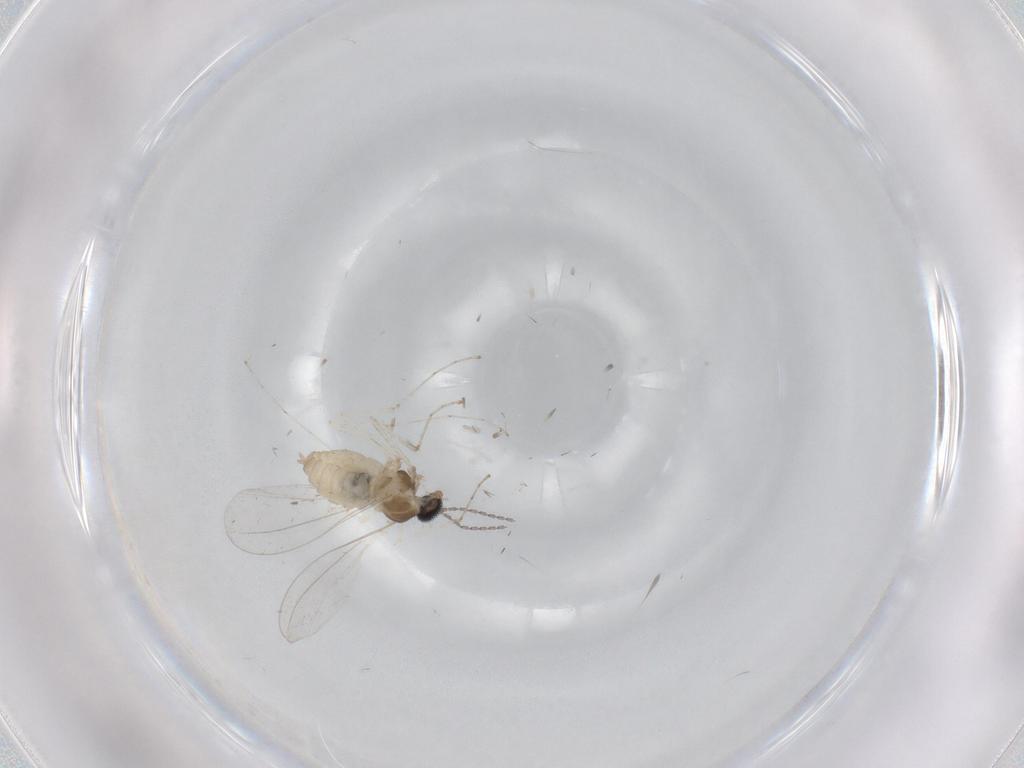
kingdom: Animalia
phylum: Arthropoda
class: Insecta
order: Diptera
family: Cecidomyiidae
